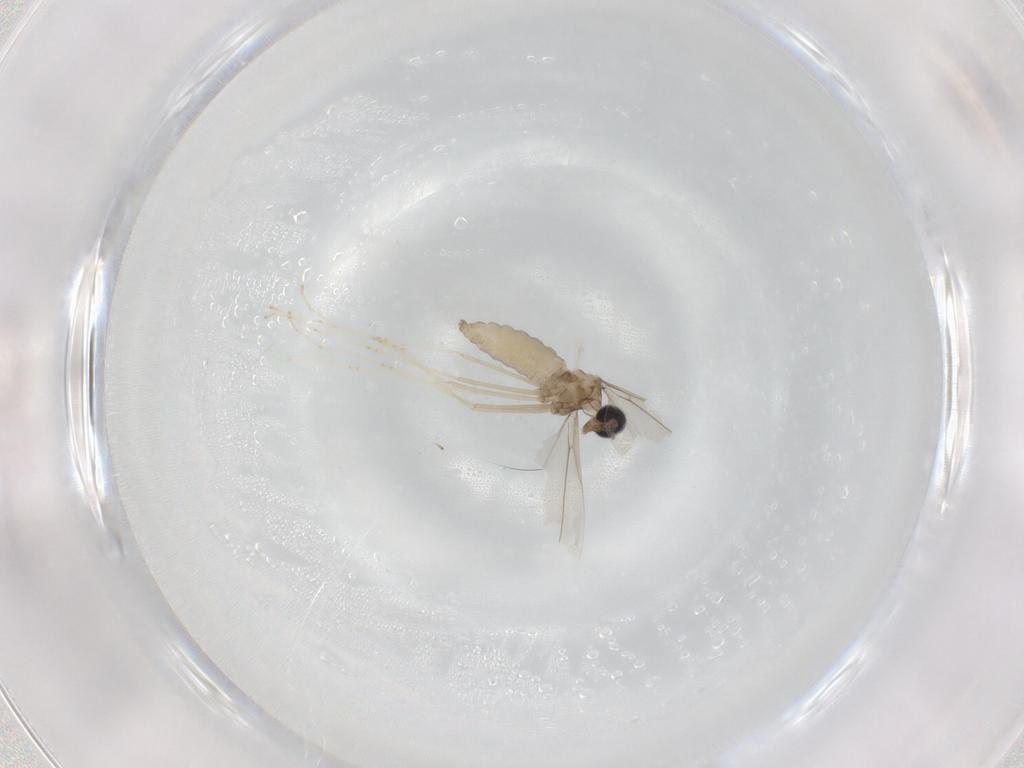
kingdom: Animalia
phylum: Arthropoda
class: Insecta
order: Diptera
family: Cecidomyiidae
